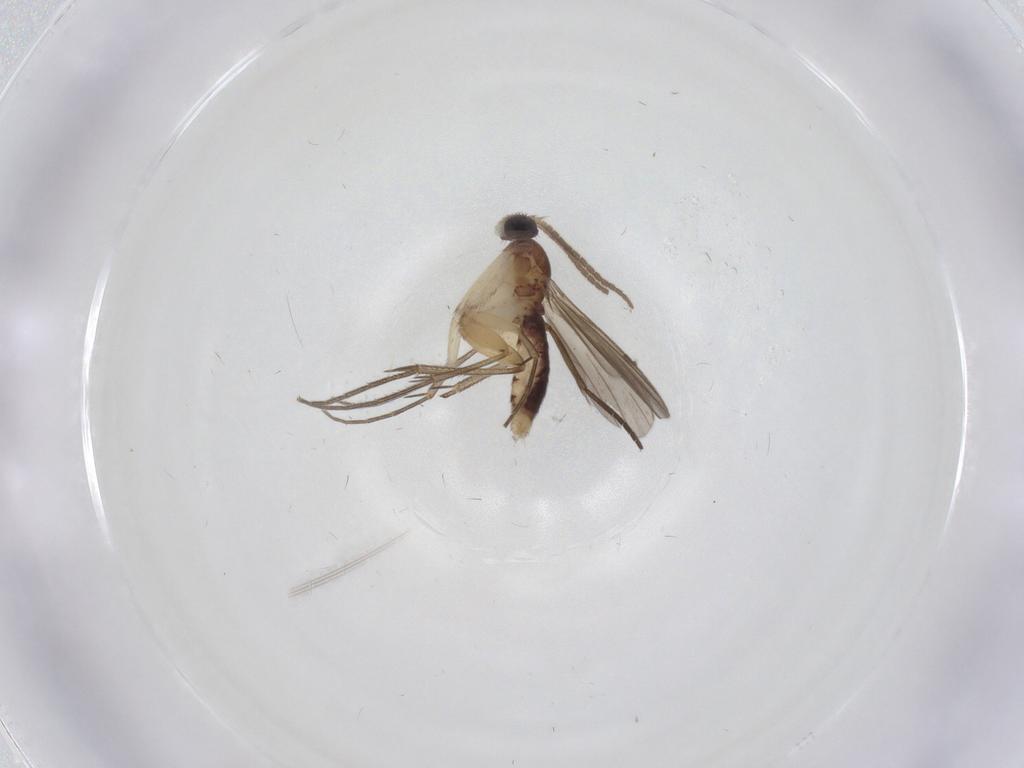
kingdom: Animalia
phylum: Arthropoda
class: Insecta
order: Diptera
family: Mycetophilidae
